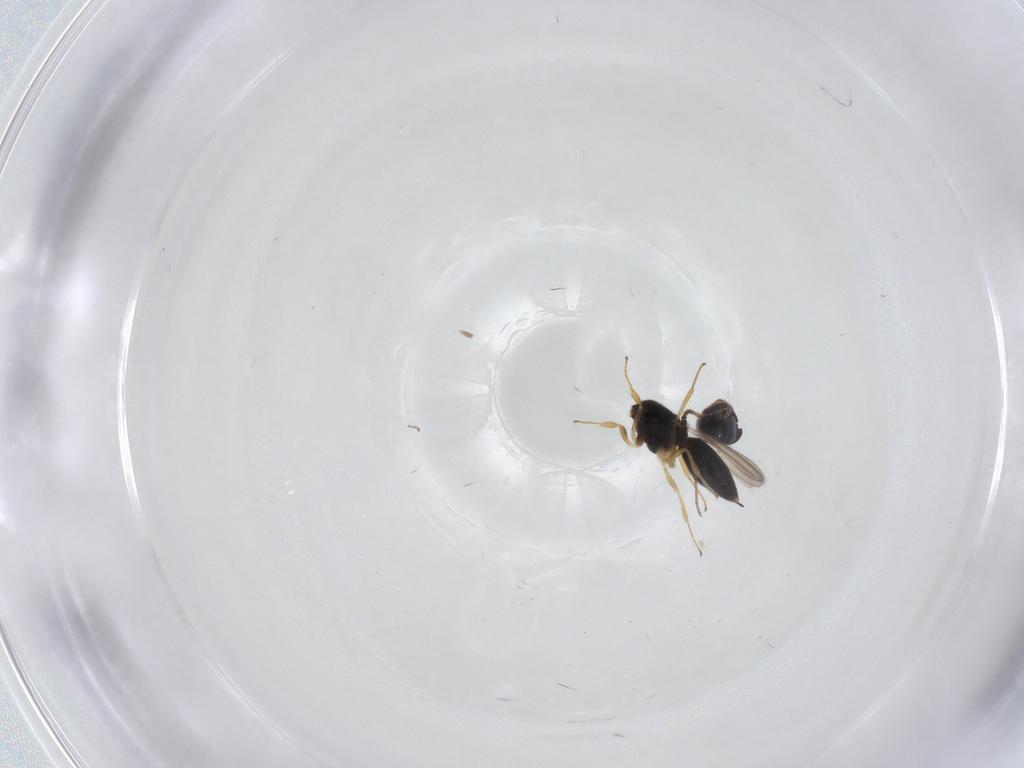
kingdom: Animalia
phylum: Arthropoda
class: Insecta
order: Hymenoptera
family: Scelionidae
